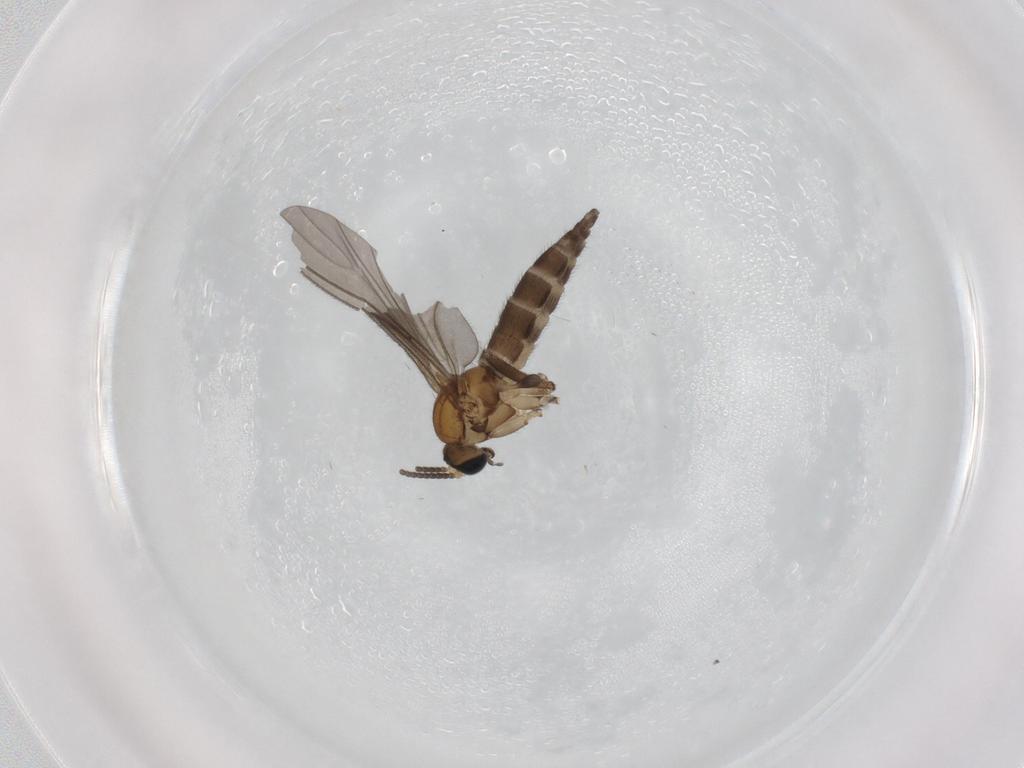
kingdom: Animalia
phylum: Arthropoda
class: Insecta
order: Diptera
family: Sciaridae
